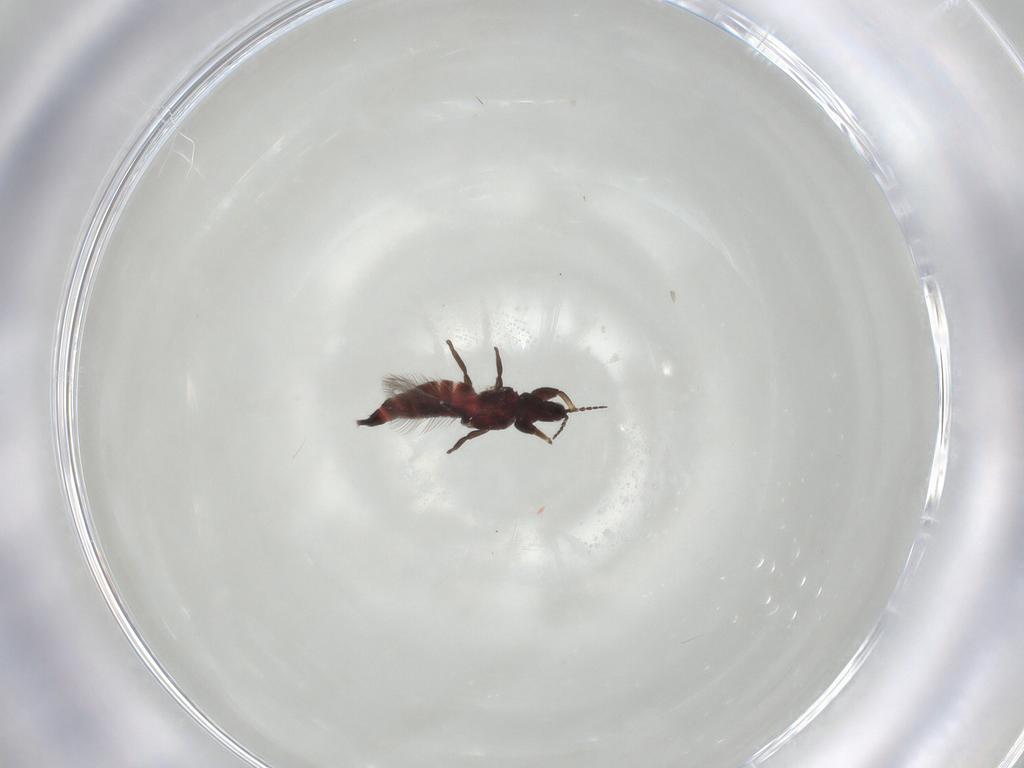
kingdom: Animalia
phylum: Arthropoda
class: Insecta
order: Thysanoptera
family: Phlaeothripidae
